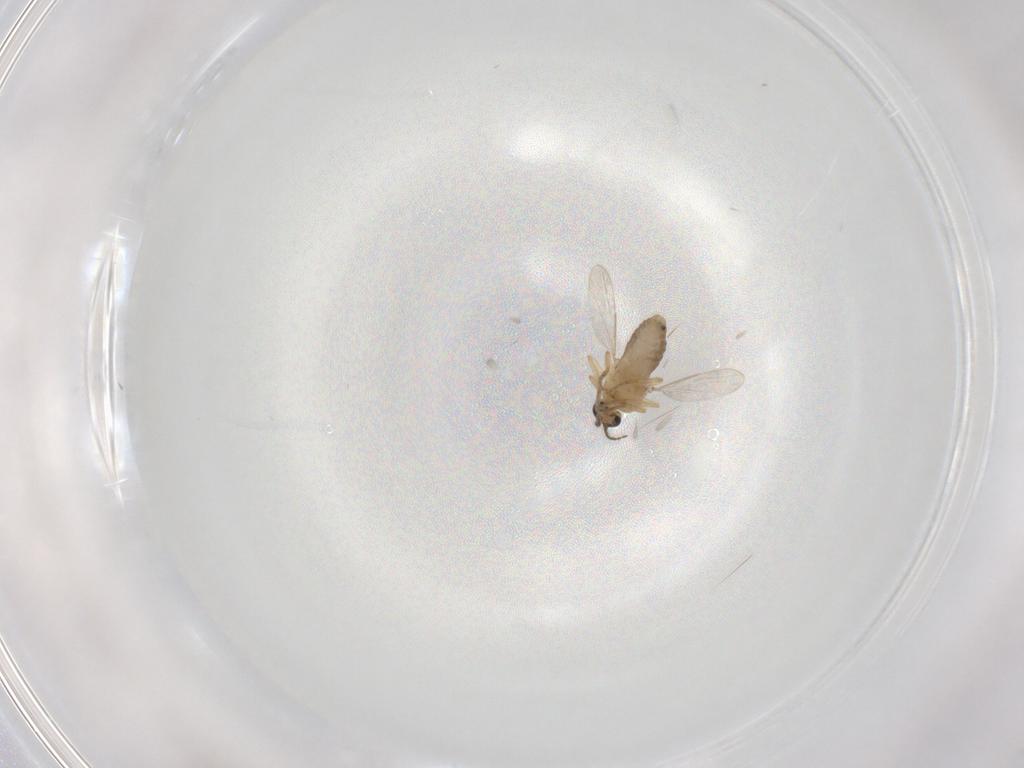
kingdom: Animalia
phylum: Arthropoda
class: Insecta
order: Diptera
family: Ceratopogonidae
